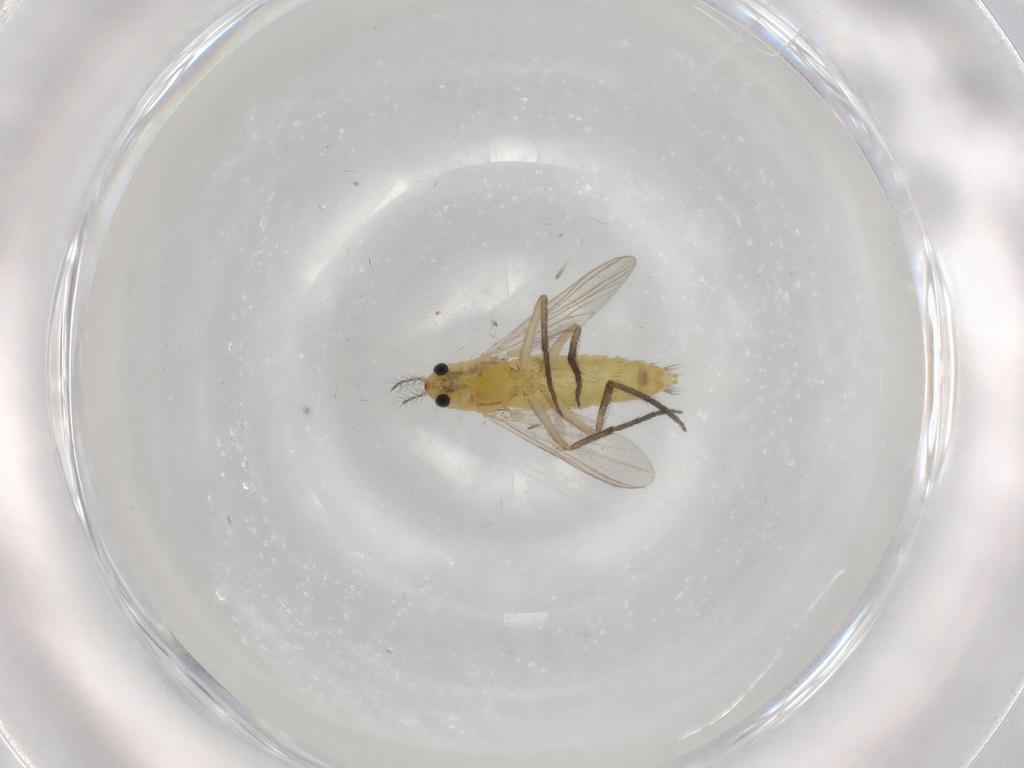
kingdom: Animalia
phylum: Arthropoda
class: Insecta
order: Diptera
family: Chironomidae
